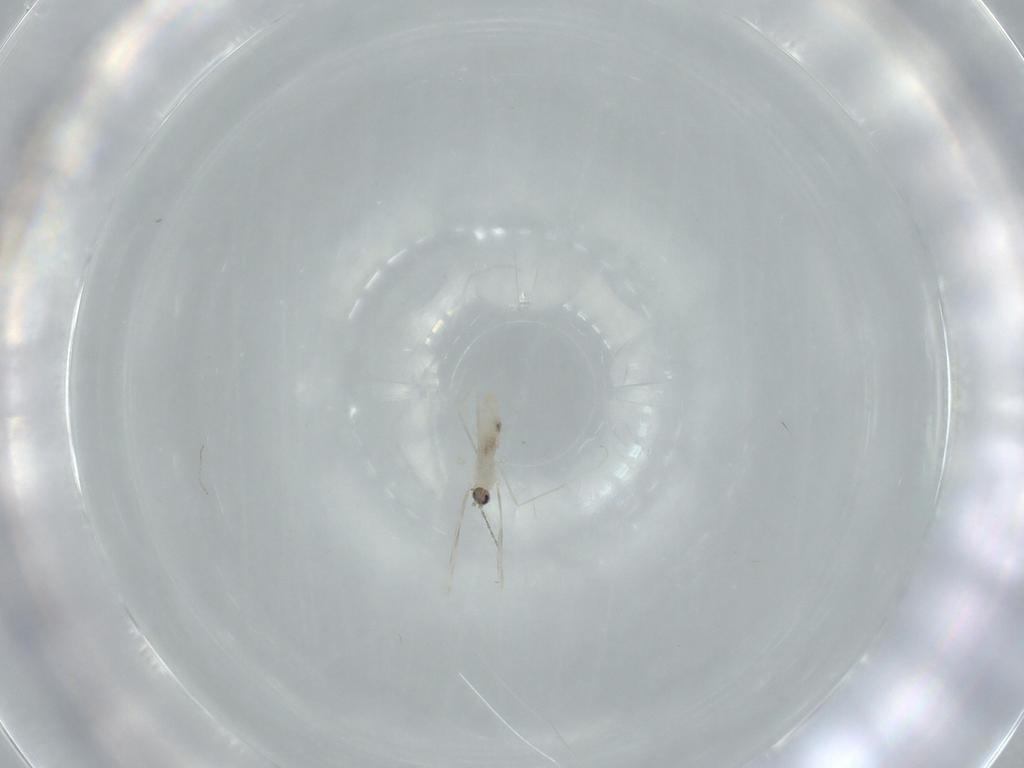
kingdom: Animalia
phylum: Arthropoda
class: Insecta
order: Diptera
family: Cecidomyiidae
